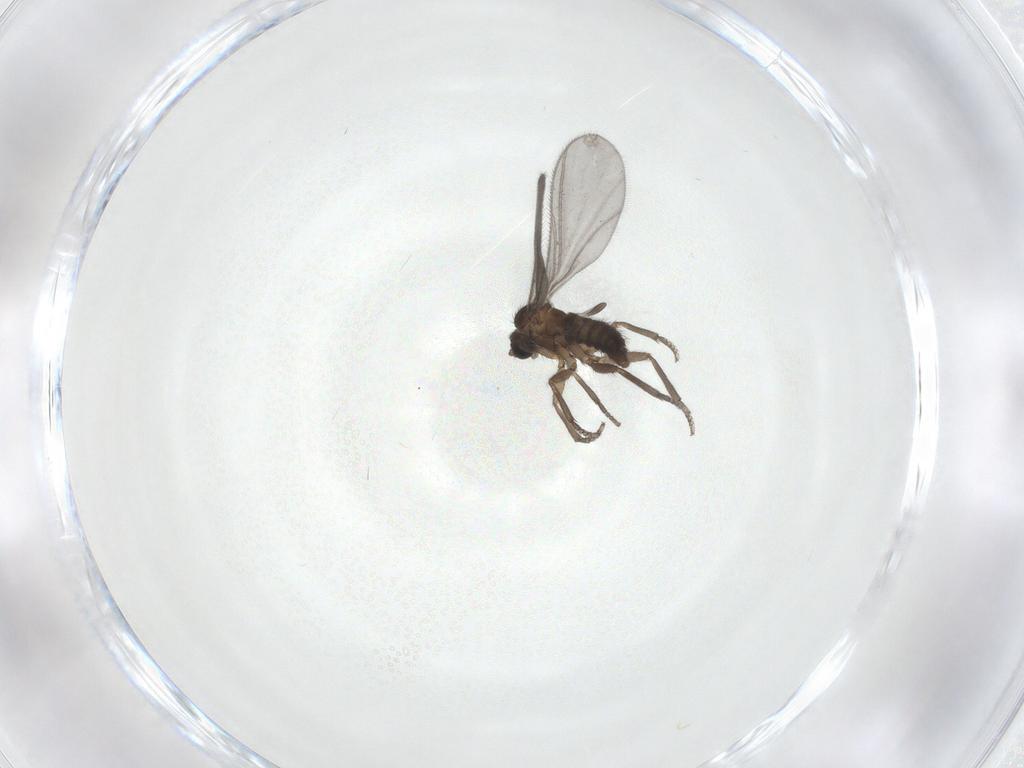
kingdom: Animalia
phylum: Arthropoda
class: Insecta
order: Diptera
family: Sciaridae
